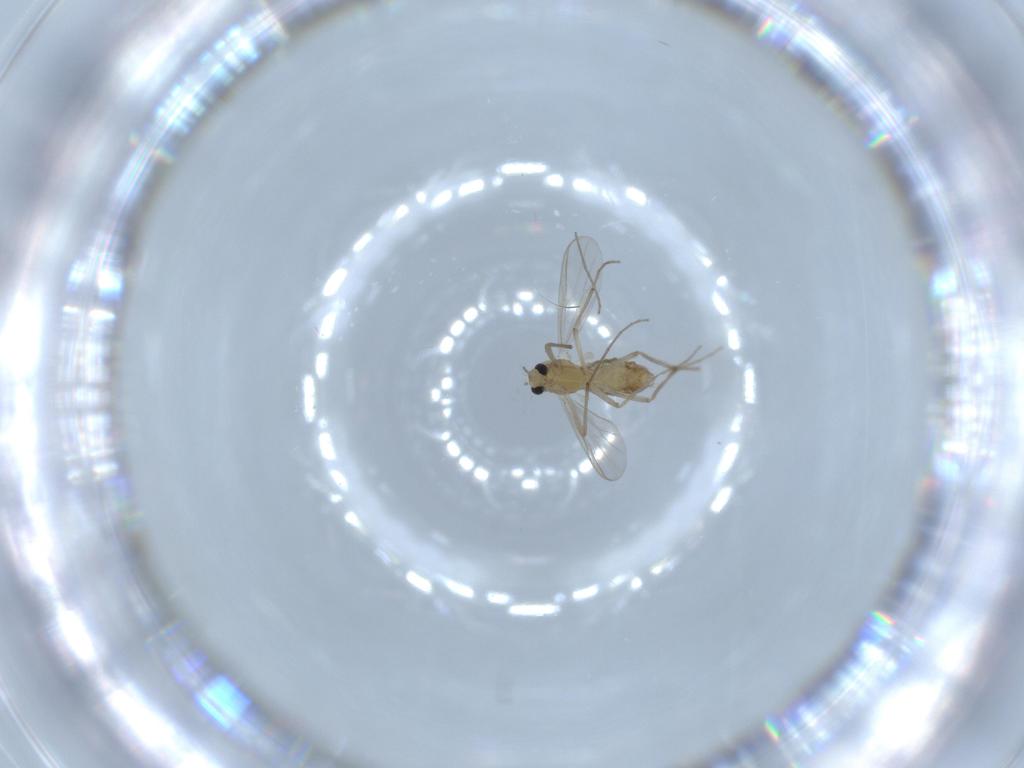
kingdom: Animalia
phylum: Arthropoda
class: Insecta
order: Diptera
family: Chironomidae
